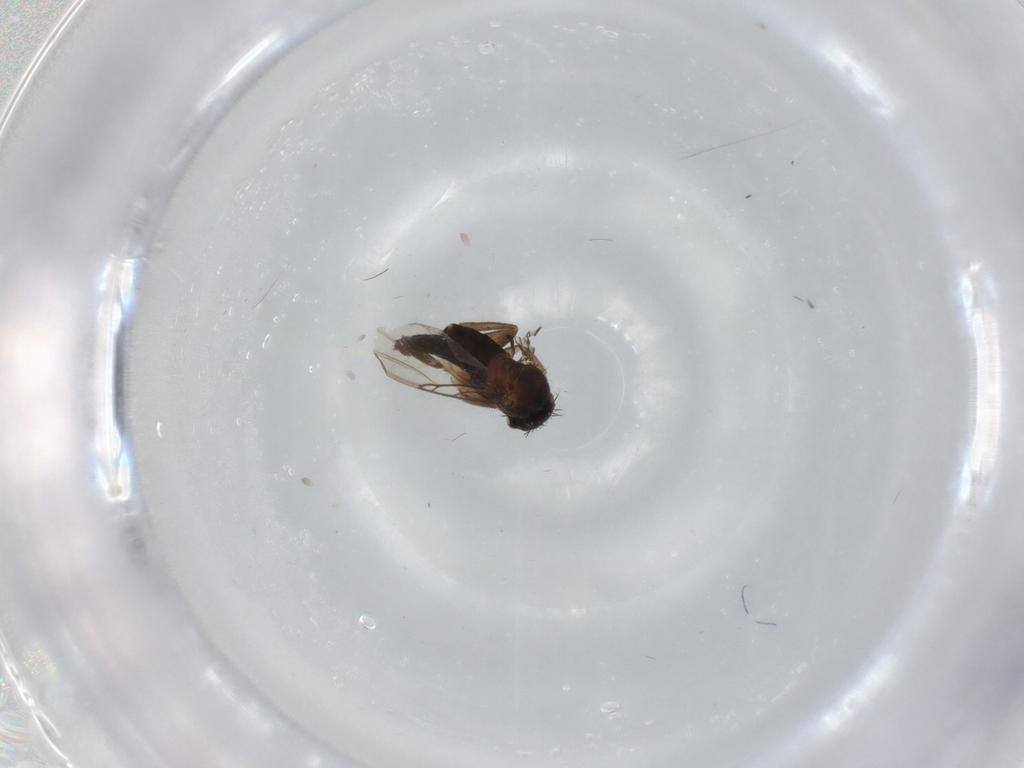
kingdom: Animalia
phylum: Arthropoda
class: Insecta
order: Diptera
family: Phoridae
